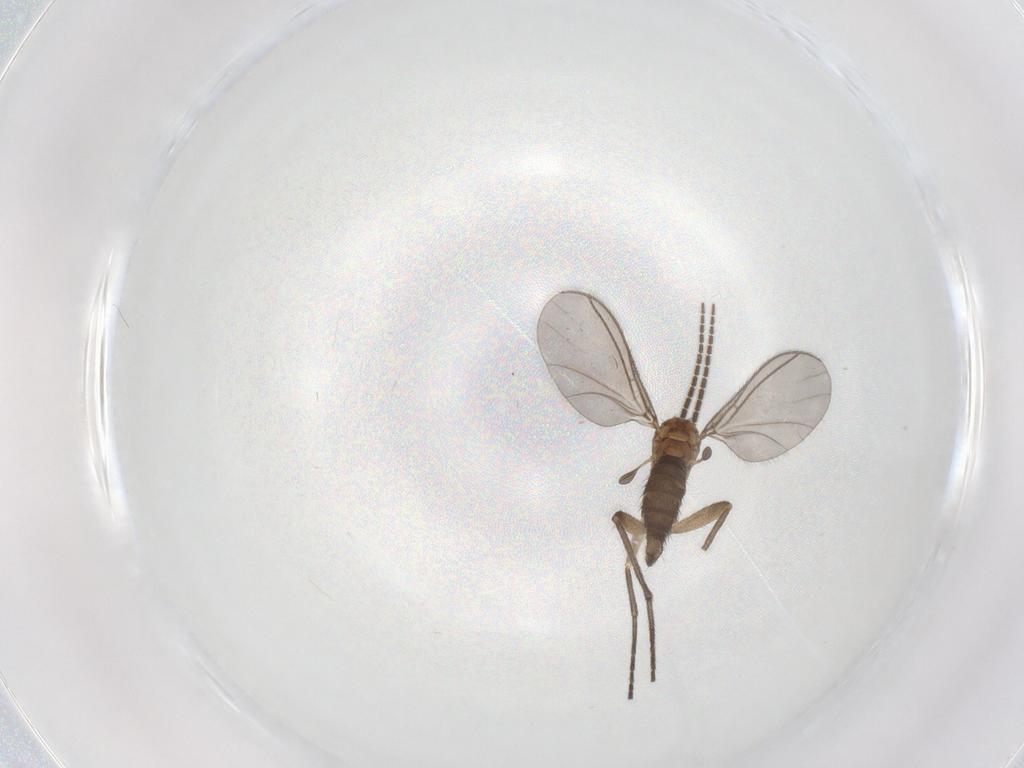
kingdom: Animalia
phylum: Arthropoda
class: Insecta
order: Diptera
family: Sciaridae
